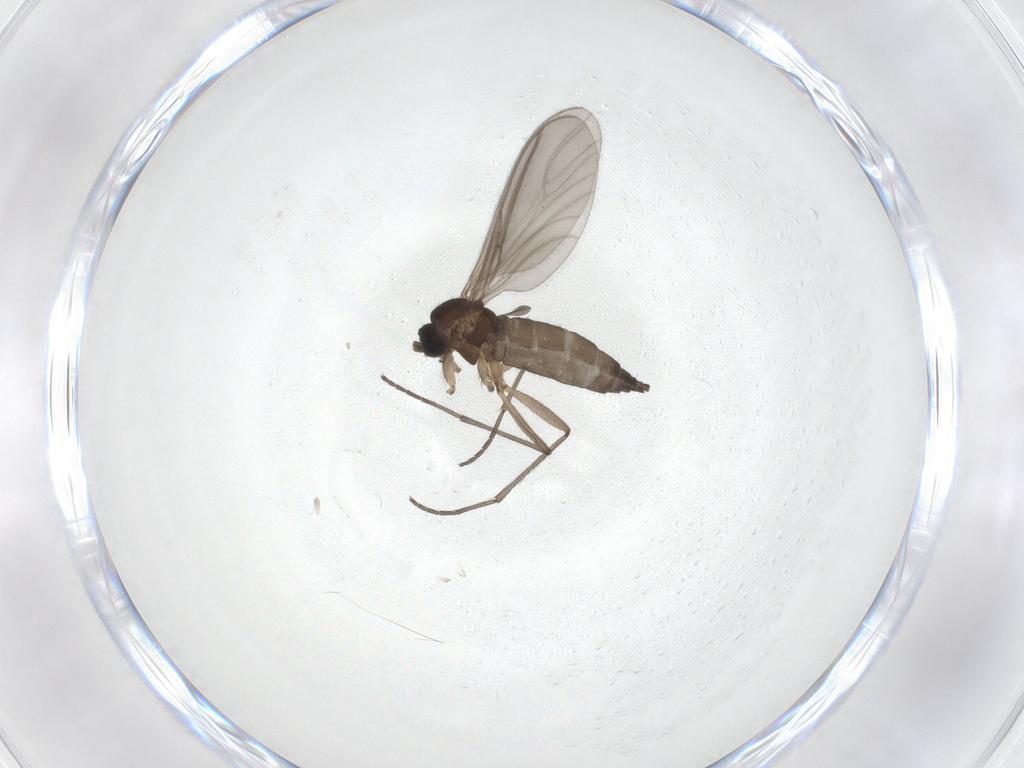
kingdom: Animalia
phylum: Arthropoda
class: Insecta
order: Diptera
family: Sciaridae
